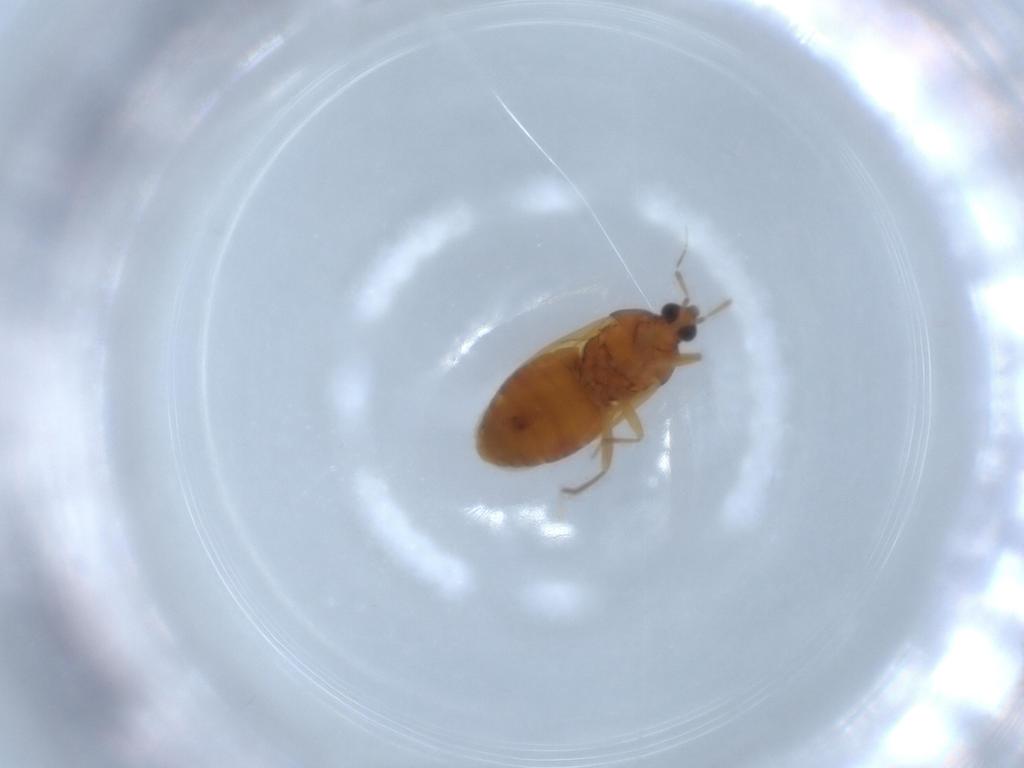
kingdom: Animalia
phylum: Arthropoda
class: Insecta
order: Hemiptera
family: Anthocoridae
